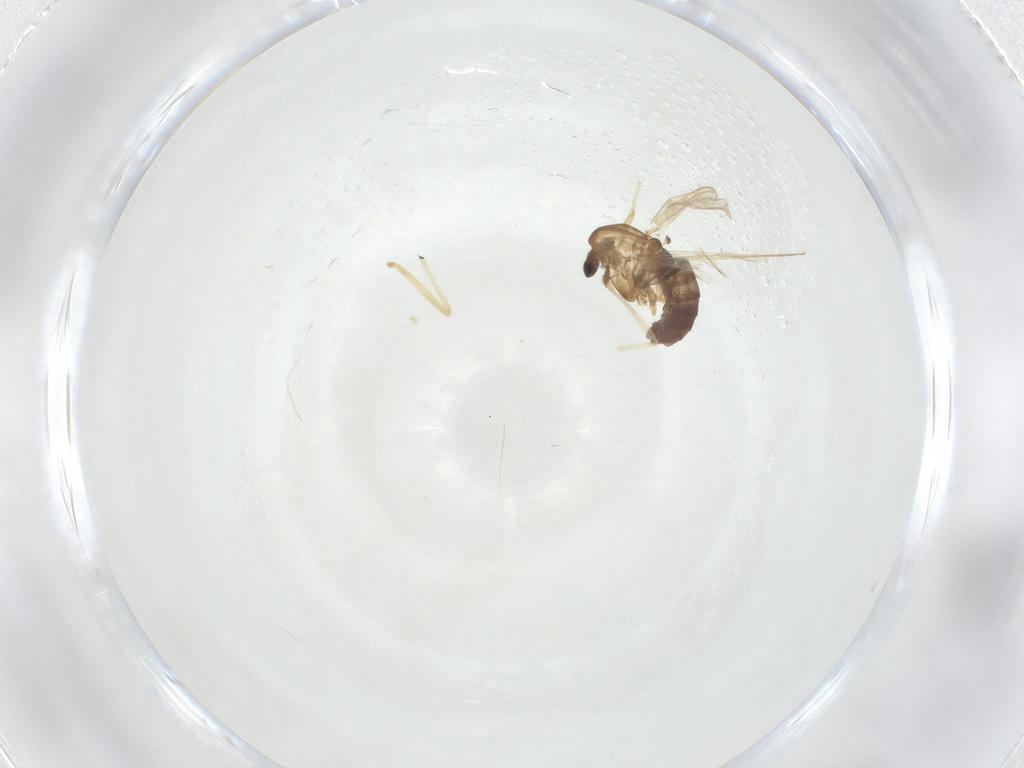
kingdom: Animalia
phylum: Arthropoda
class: Insecta
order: Diptera
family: Chironomidae
